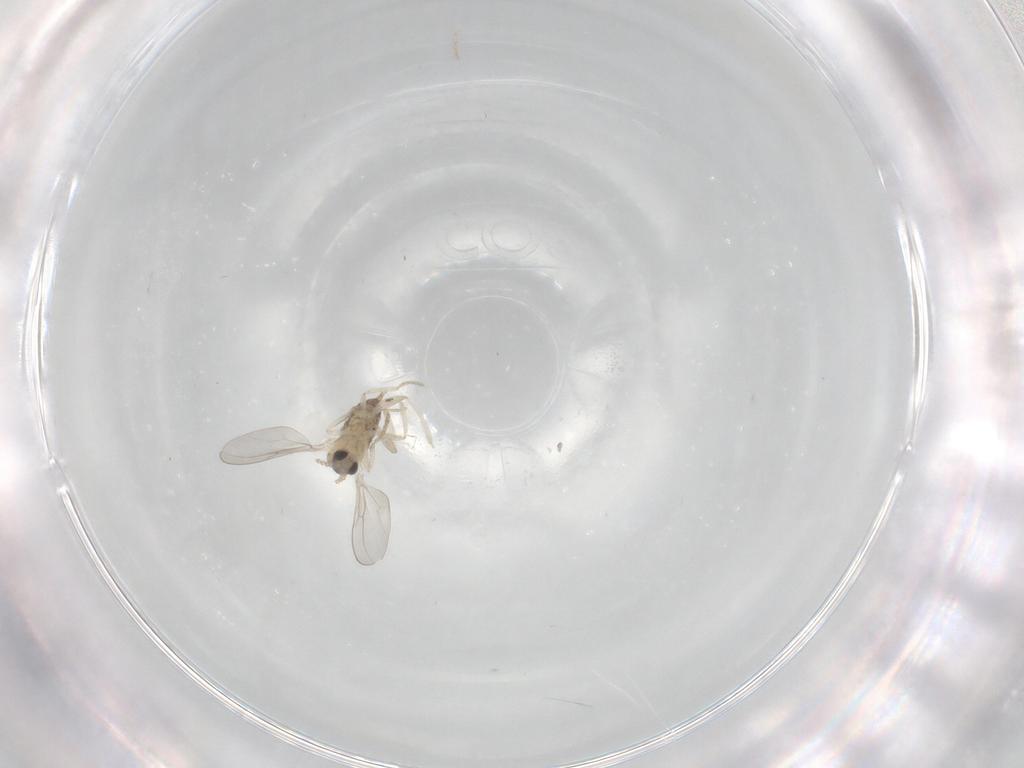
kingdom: Animalia
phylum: Arthropoda
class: Insecta
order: Diptera
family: Cecidomyiidae
